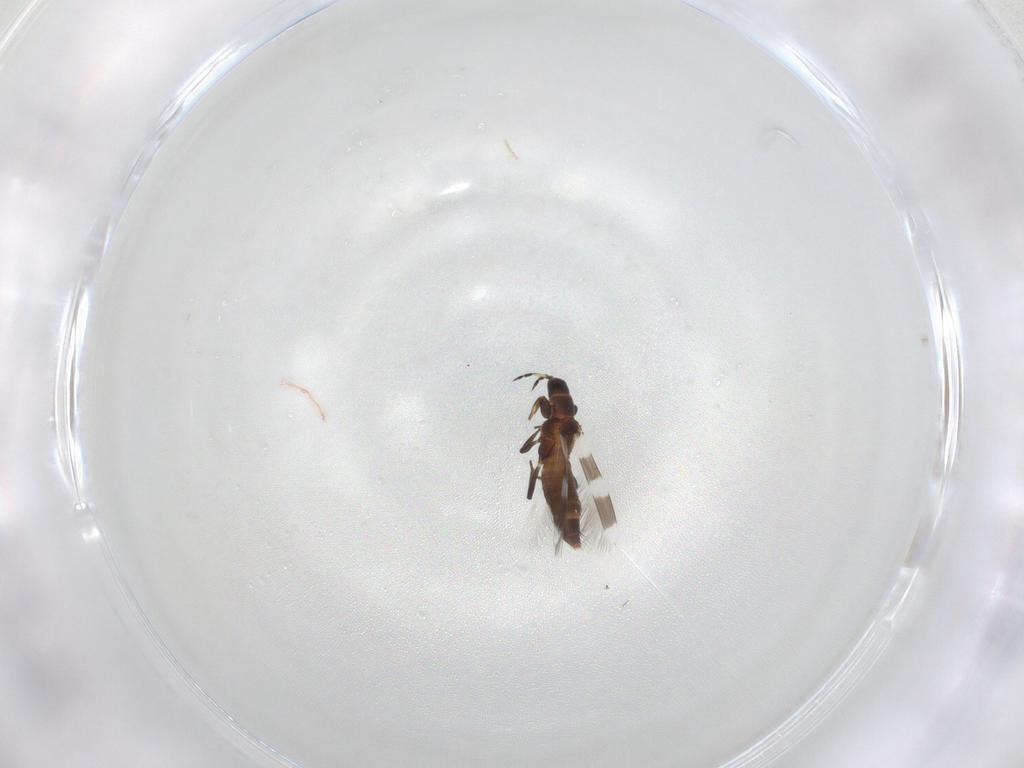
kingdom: Animalia
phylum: Arthropoda
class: Insecta
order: Thysanoptera
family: Aeolothripidae
